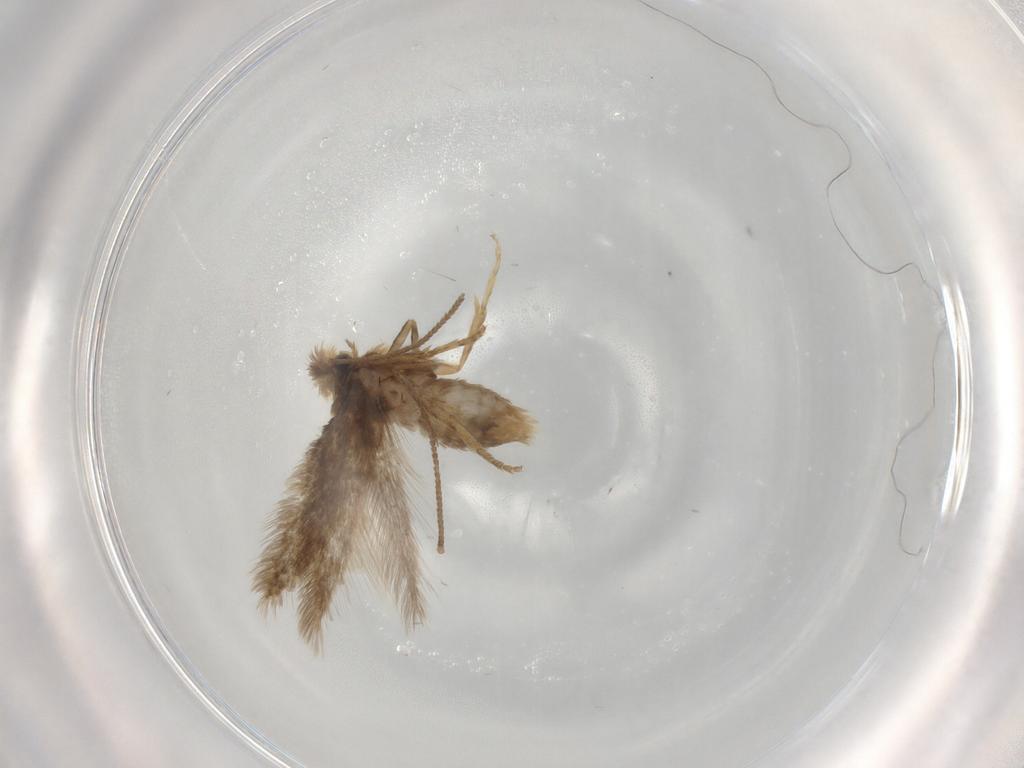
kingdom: Animalia
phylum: Arthropoda
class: Insecta
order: Lepidoptera
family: Nepticulidae
